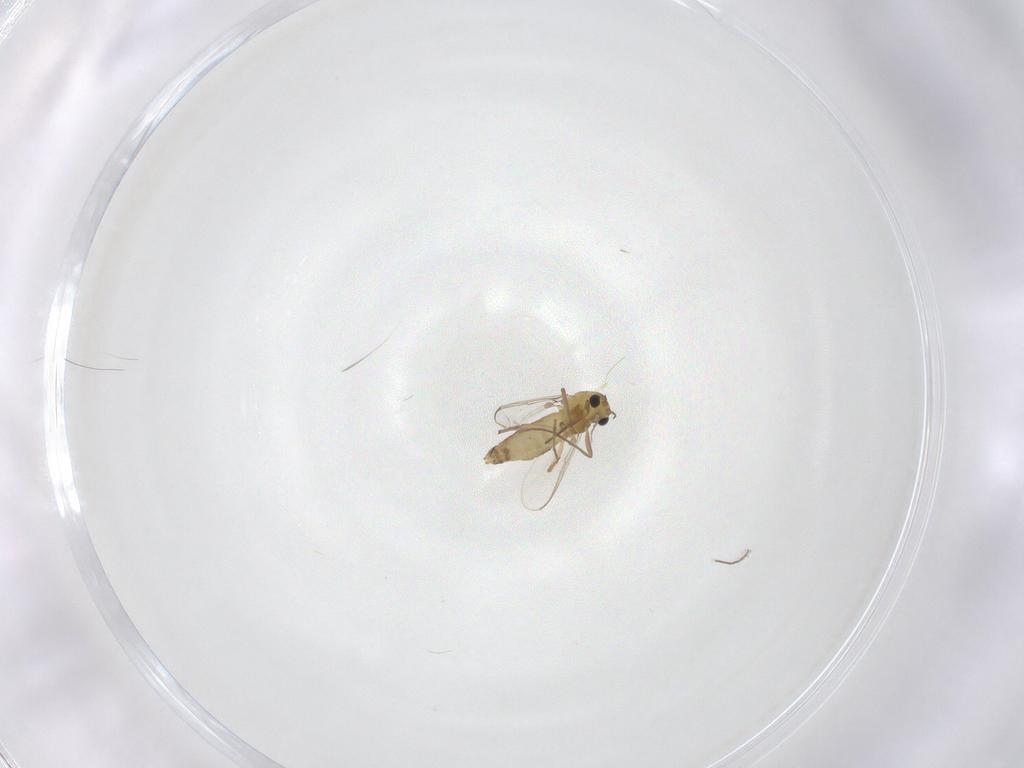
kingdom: Animalia
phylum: Arthropoda
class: Insecta
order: Diptera
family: Chironomidae
